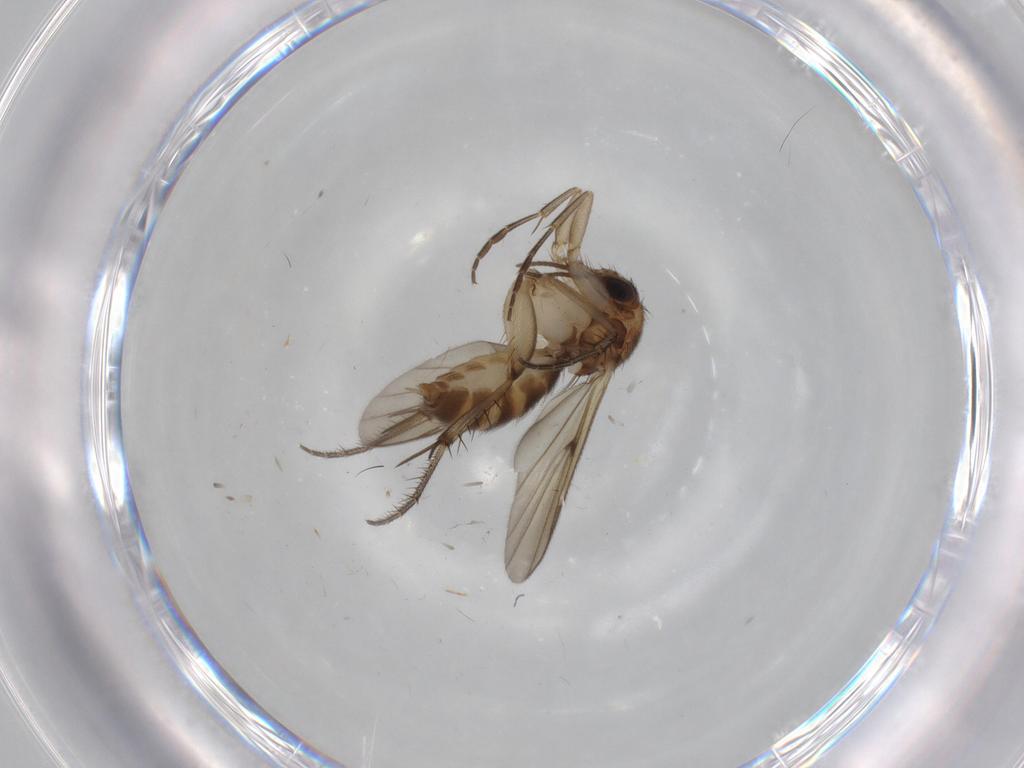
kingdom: Animalia
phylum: Arthropoda
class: Insecta
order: Diptera
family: Mycetophilidae
